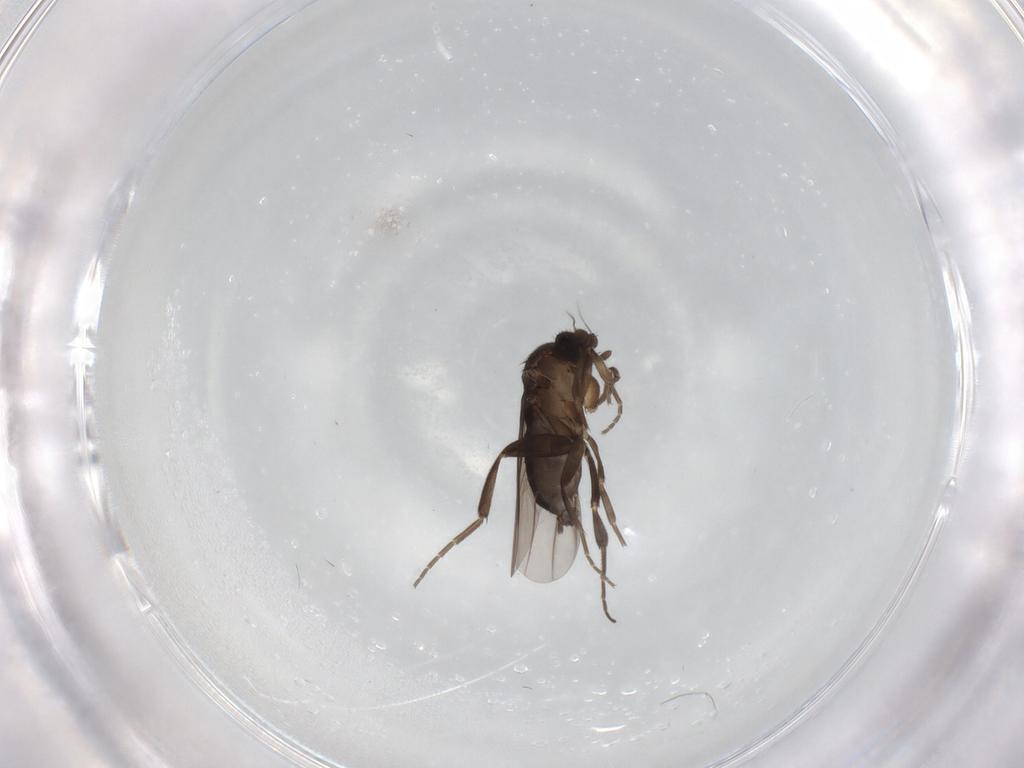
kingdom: Animalia
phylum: Arthropoda
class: Insecta
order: Diptera
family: Phoridae
